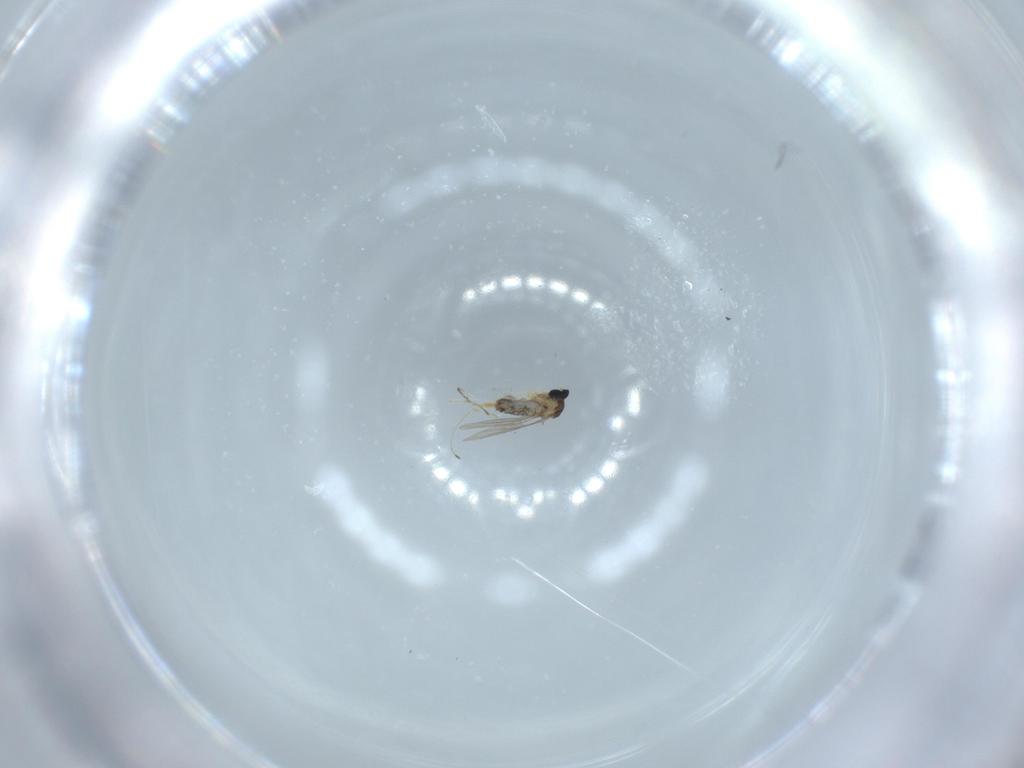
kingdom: Animalia
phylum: Arthropoda
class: Insecta
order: Diptera
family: Cecidomyiidae
